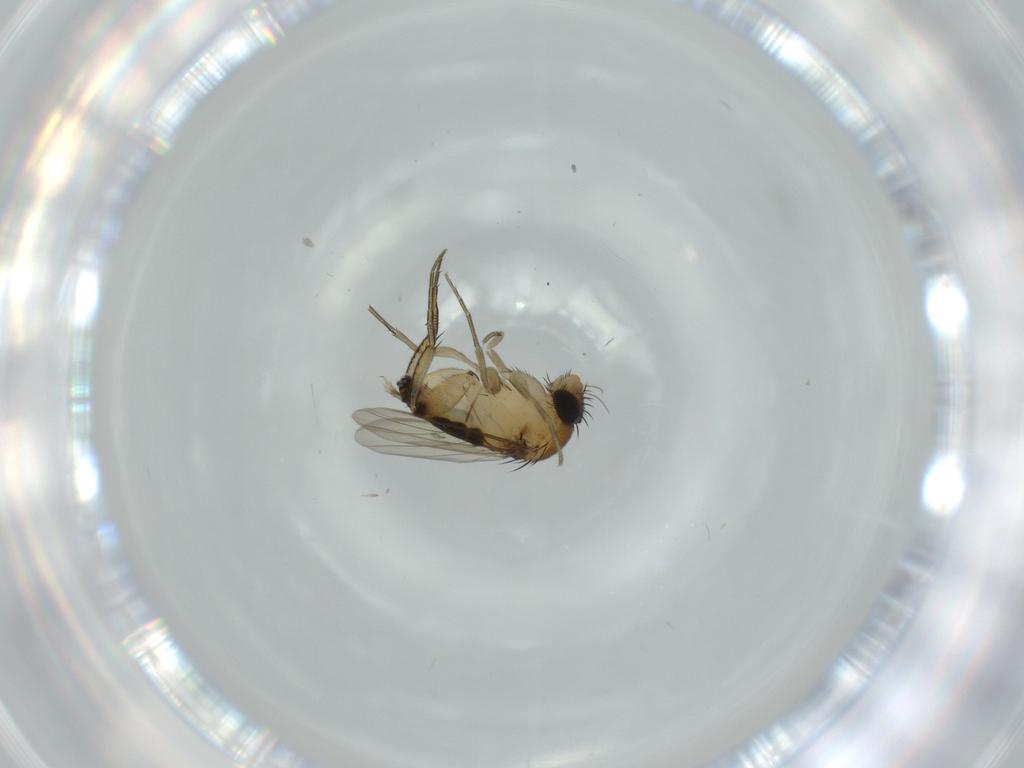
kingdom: Animalia
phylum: Arthropoda
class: Insecta
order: Diptera
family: Phoridae
